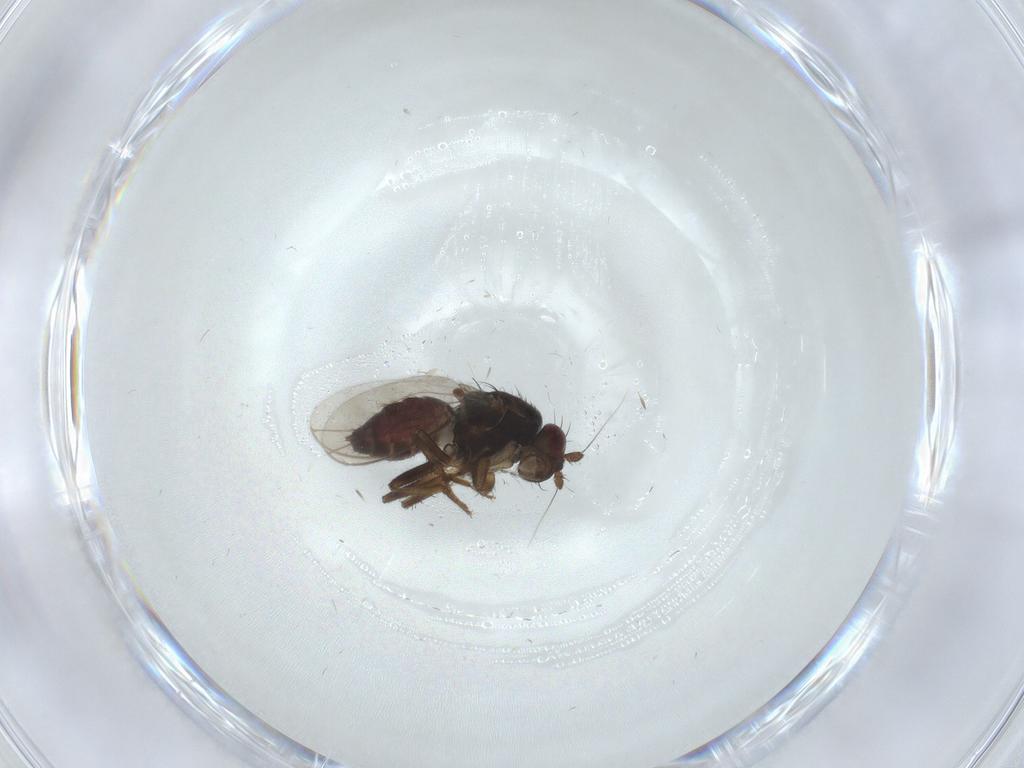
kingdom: Animalia
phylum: Arthropoda
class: Insecta
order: Diptera
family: Sphaeroceridae
